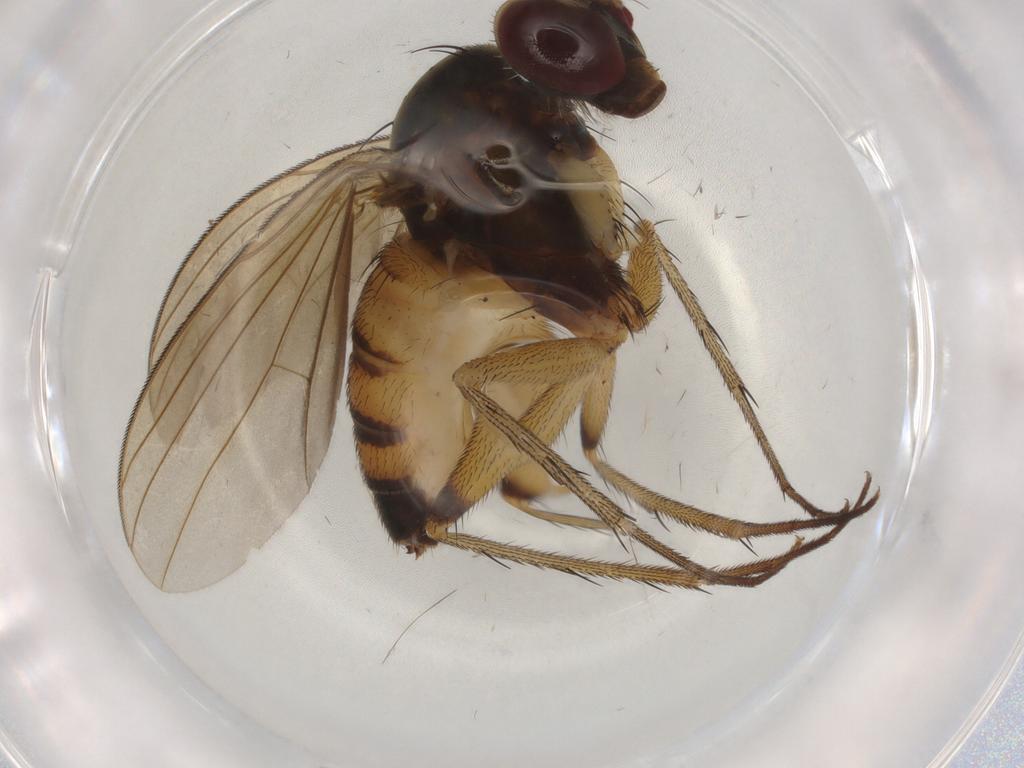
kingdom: Animalia
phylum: Arthropoda
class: Insecta
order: Diptera
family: Dolichopodidae
